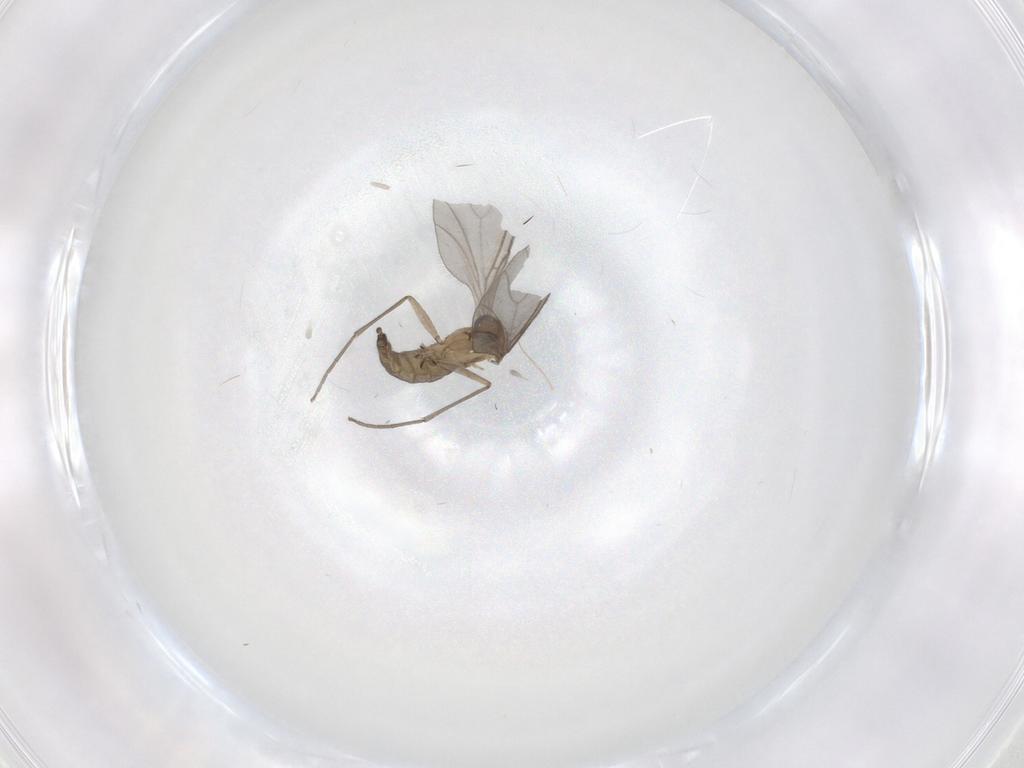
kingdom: Animalia
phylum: Arthropoda
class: Insecta
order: Diptera
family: Sciaridae
